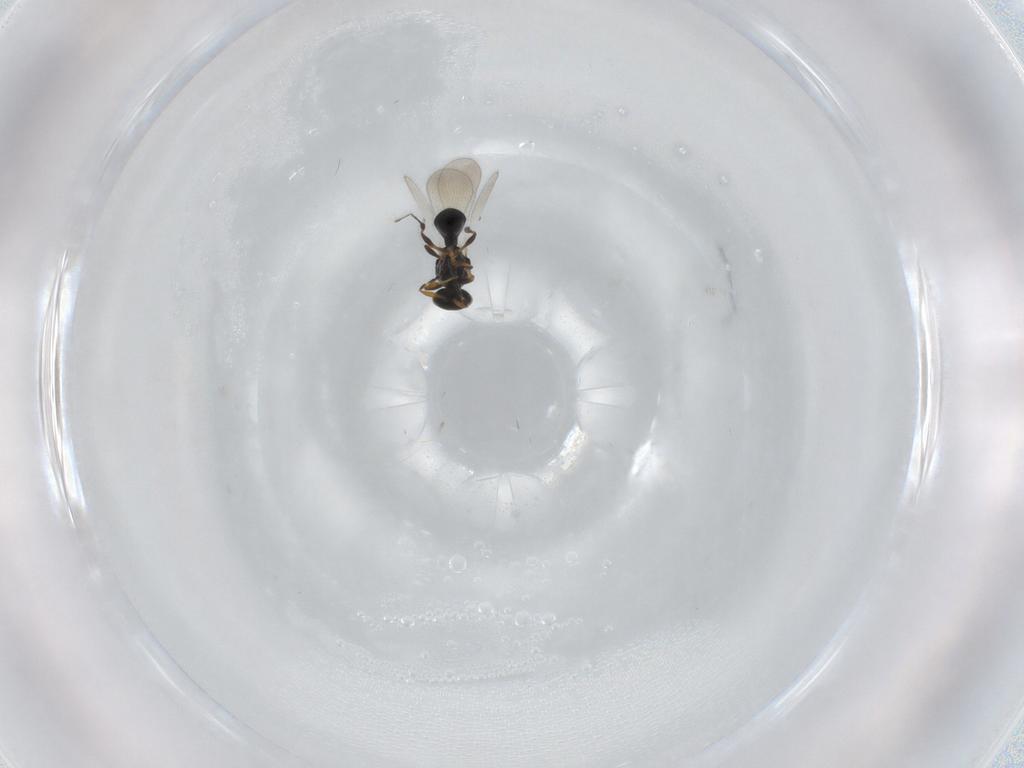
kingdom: Animalia
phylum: Arthropoda
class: Insecta
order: Hymenoptera
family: Platygastridae
